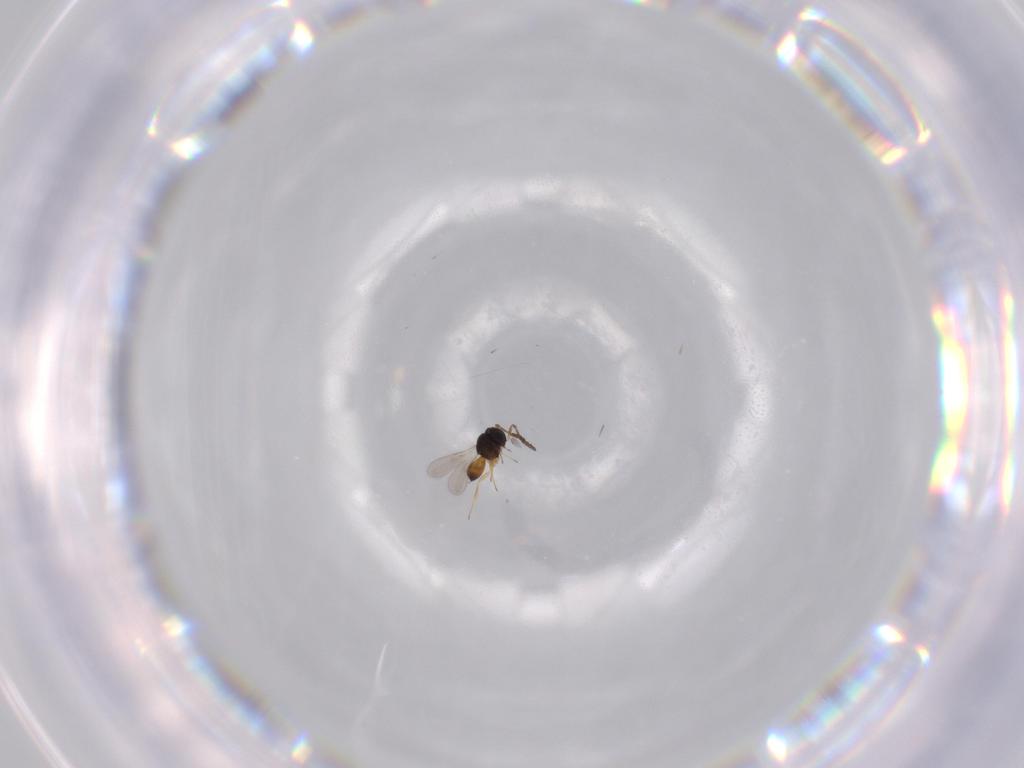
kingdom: Animalia
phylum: Arthropoda
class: Insecta
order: Hymenoptera
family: Scelionidae
